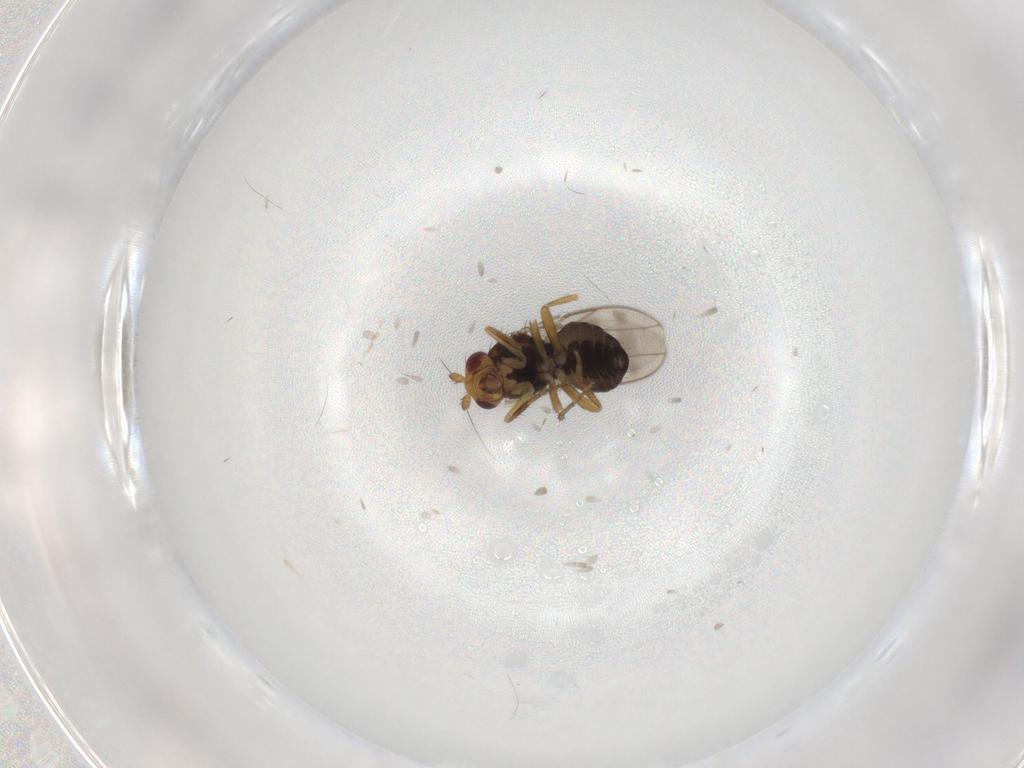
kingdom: Animalia
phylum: Arthropoda
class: Insecta
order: Diptera
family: Sphaeroceridae
